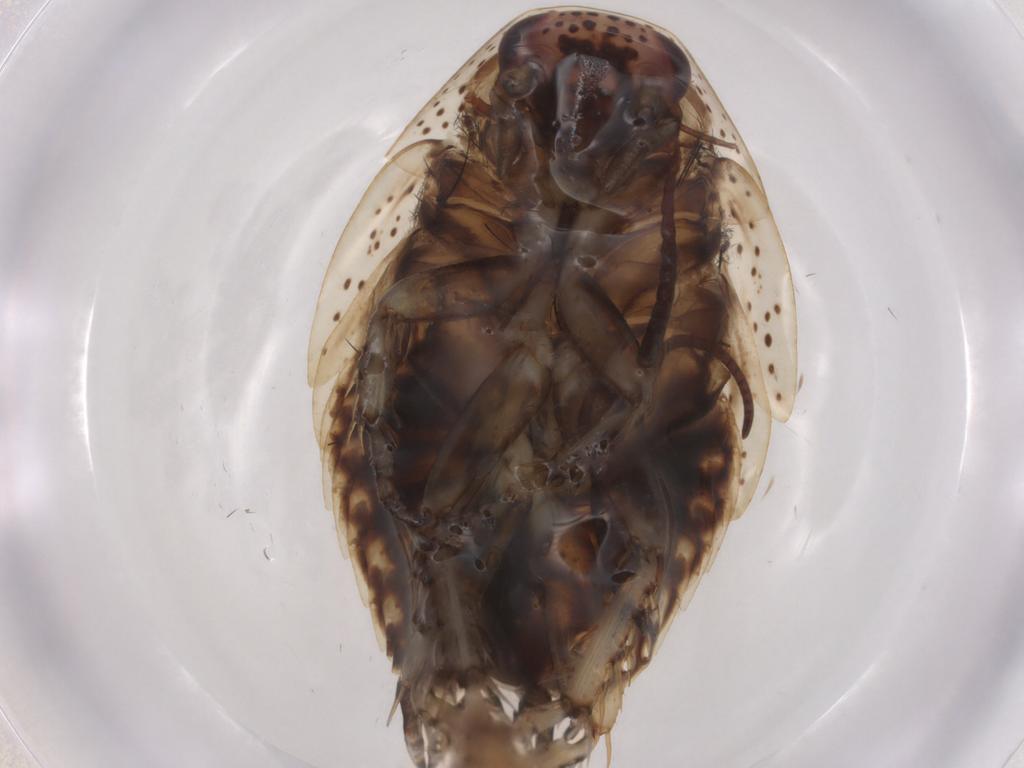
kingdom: Animalia
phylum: Arthropoda
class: Insecta
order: Blattodea
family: Ectobiidae
